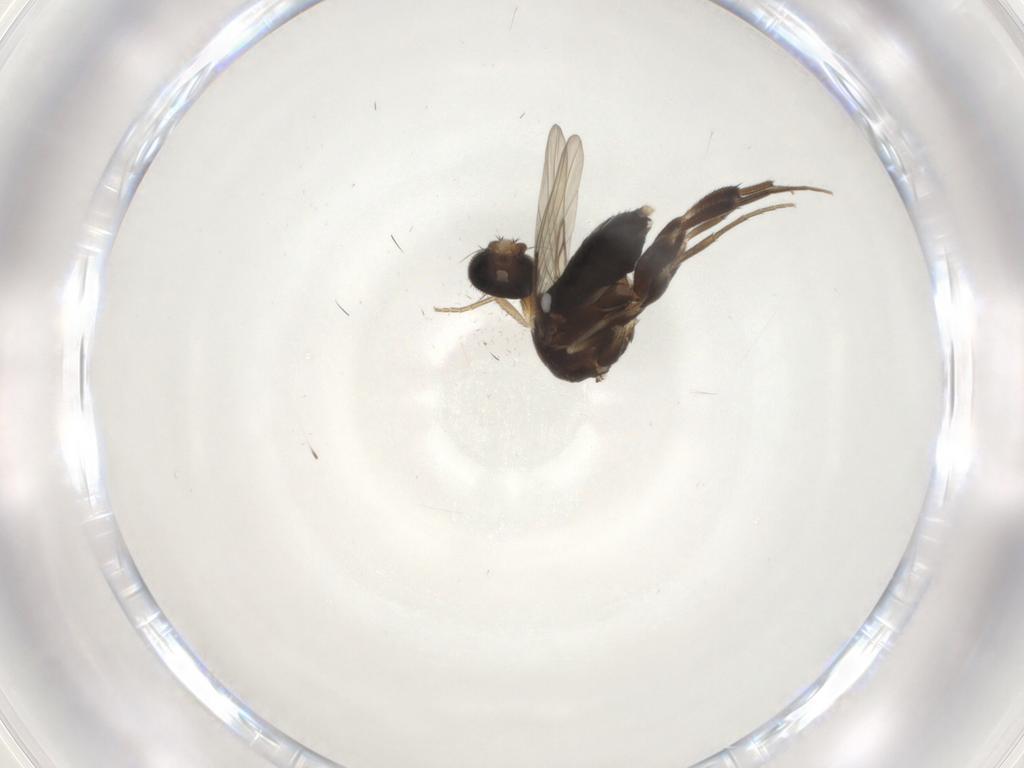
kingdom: Animalia
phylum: Arthropoda
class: Insecta
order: Diptera
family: Phoridae
